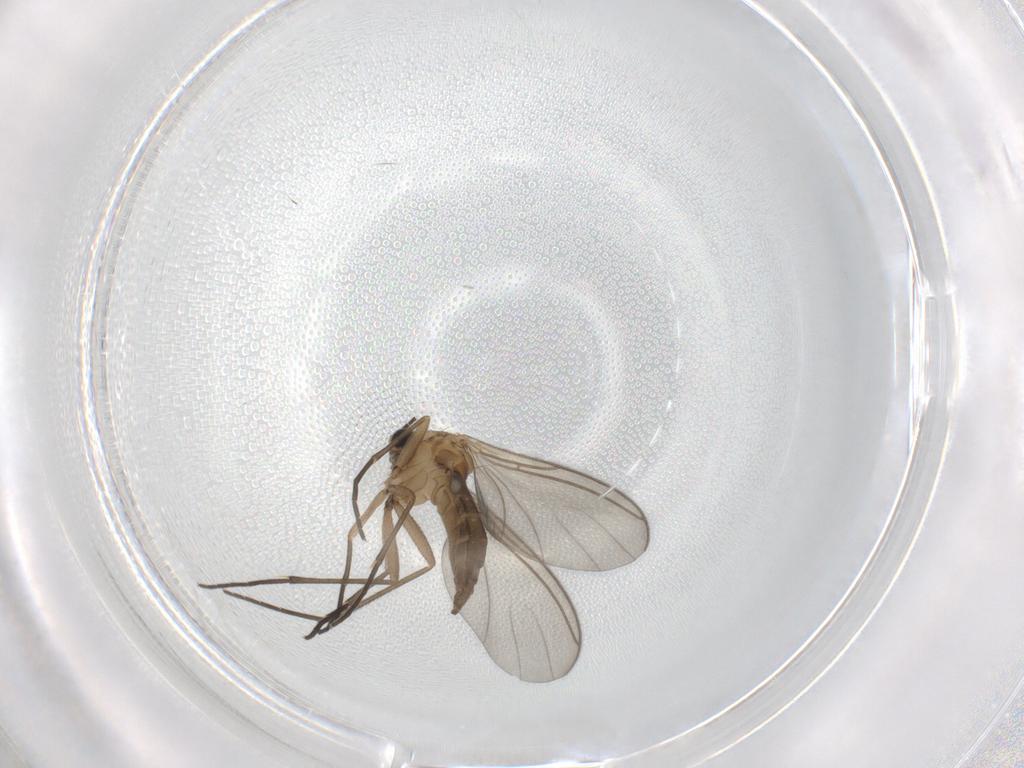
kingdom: Animalia
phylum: Arthropoda
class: Insecta
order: Diptera
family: Sciaridae
